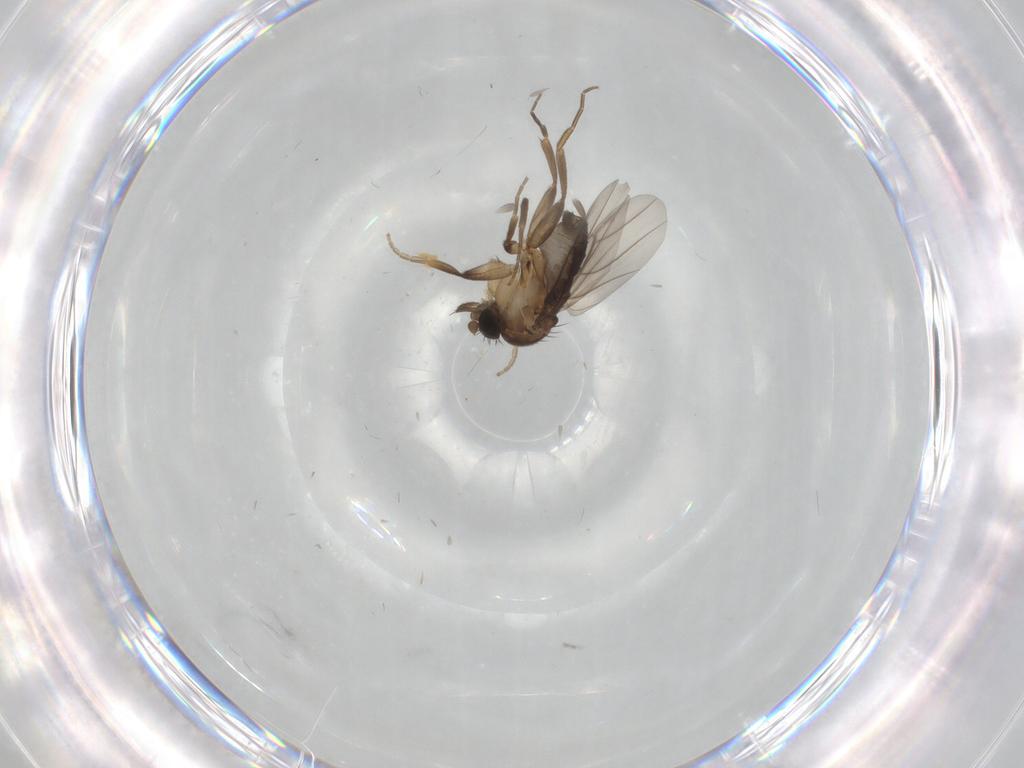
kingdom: Animalia
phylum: Arthropoda
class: Insecta
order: Diptera
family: Phoridae
